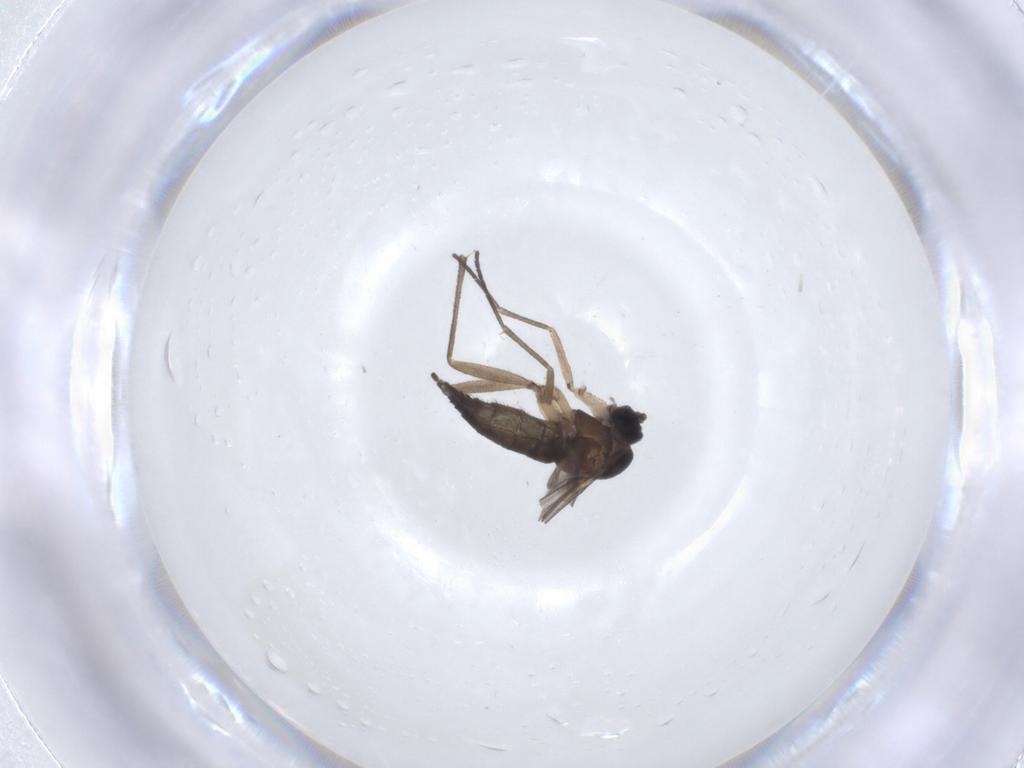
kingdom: Animalia
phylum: Arthropoda
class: Insecta
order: Diptera
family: Sciaridae
